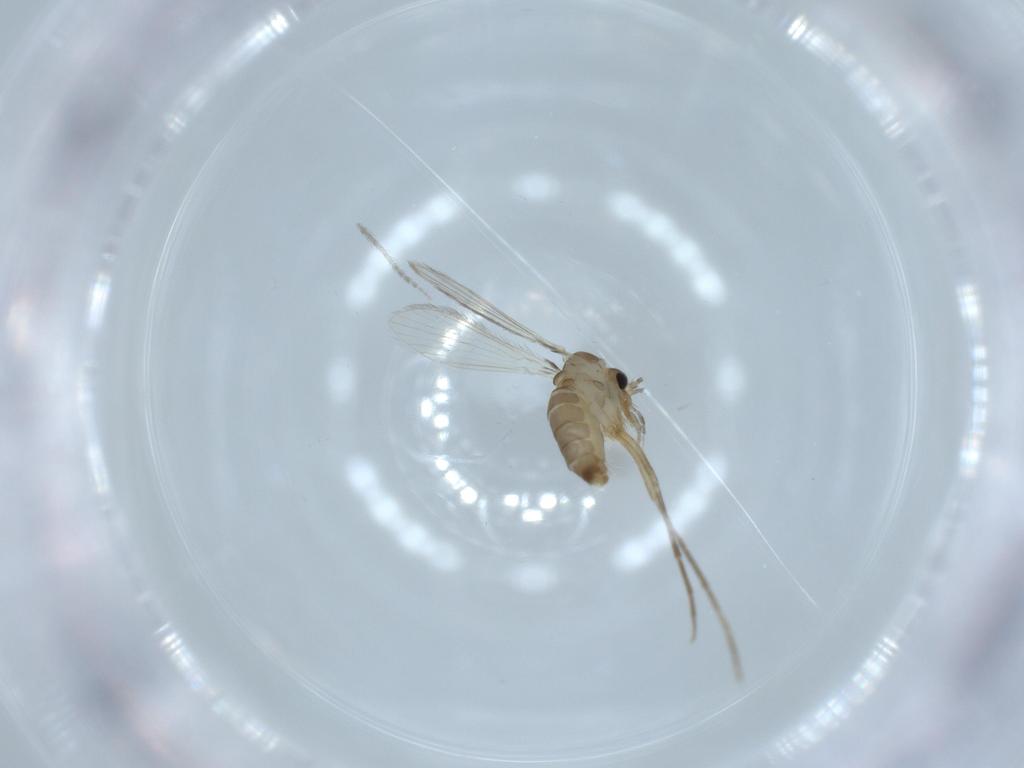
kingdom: Animalia
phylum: Arthropoda
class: Insecta
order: Diptera
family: Psychodidae
